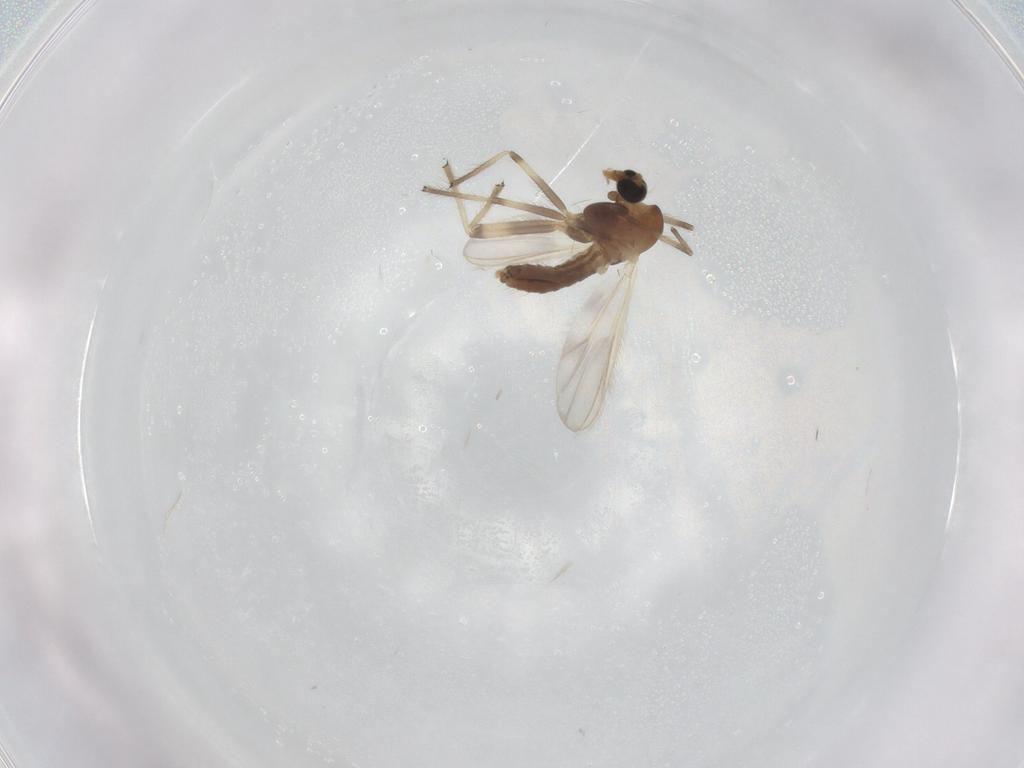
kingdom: Animalia
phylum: Arthropoda
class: Insecta
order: Diptera
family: Chironomidae
